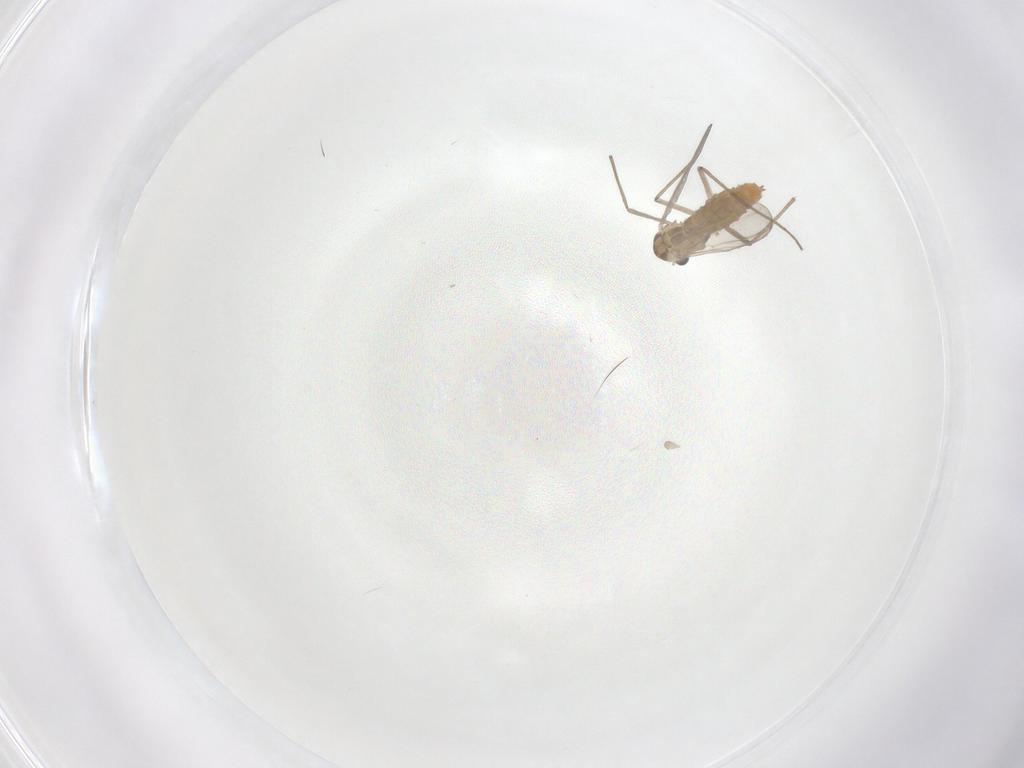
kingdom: Animalia
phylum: Arthropoda
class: Insecta
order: Diptera
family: Chironomidae
